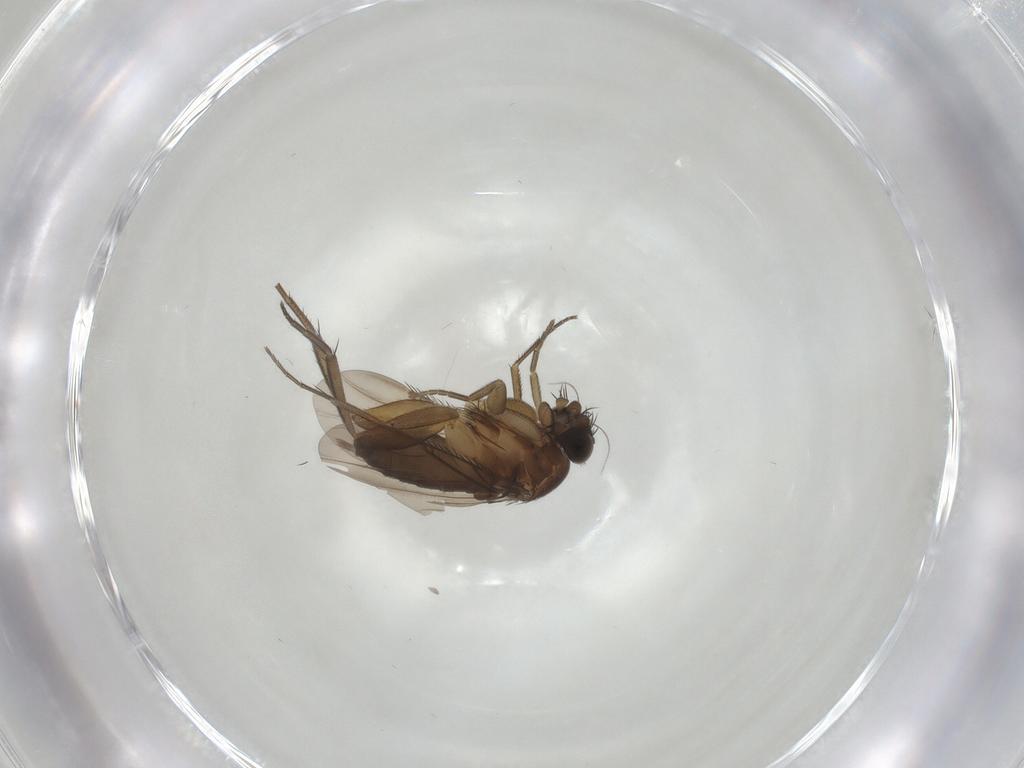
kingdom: Animalia
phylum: Arthropoda
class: Insecta
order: Diptera
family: Phoridae
